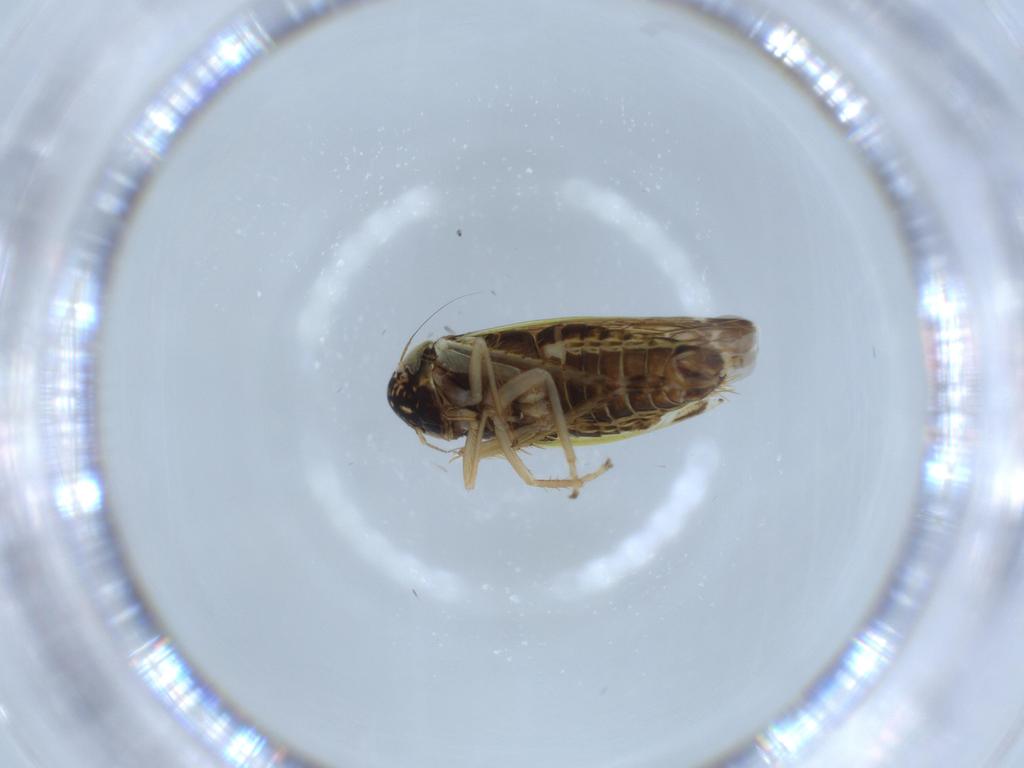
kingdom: Animalia
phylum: Arthropoda
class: Insecta
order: Hemiptera
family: Cicadellidae
